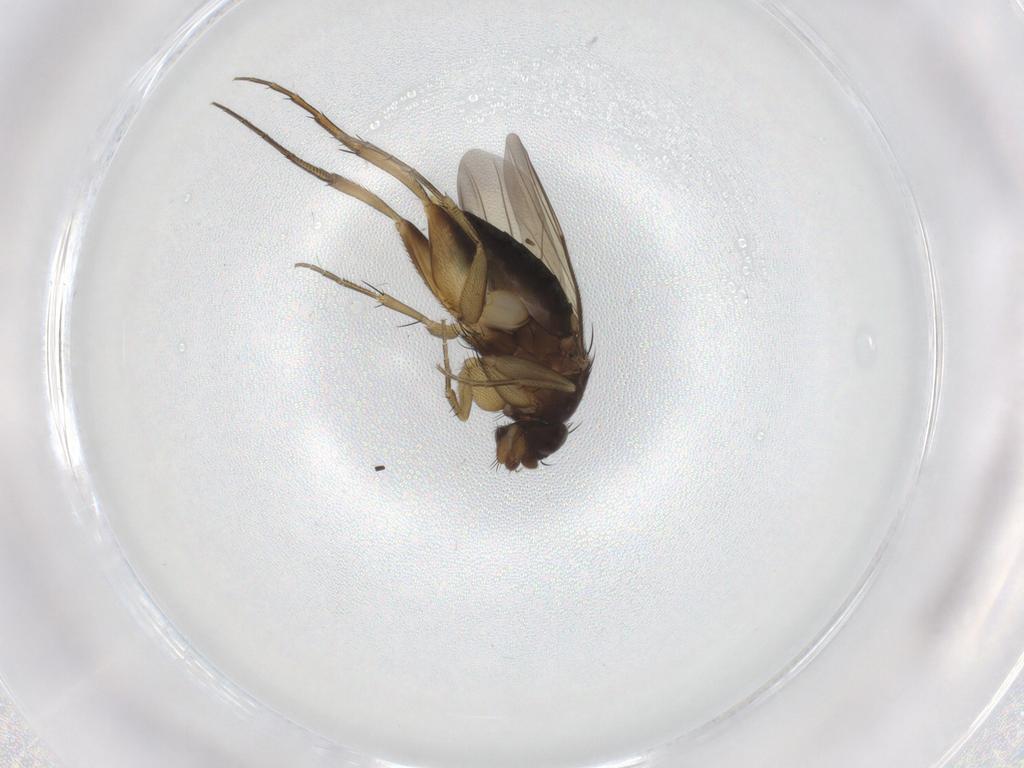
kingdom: Animalia
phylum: Arthropoda
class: Insecta
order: Diptera
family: Phoridae
